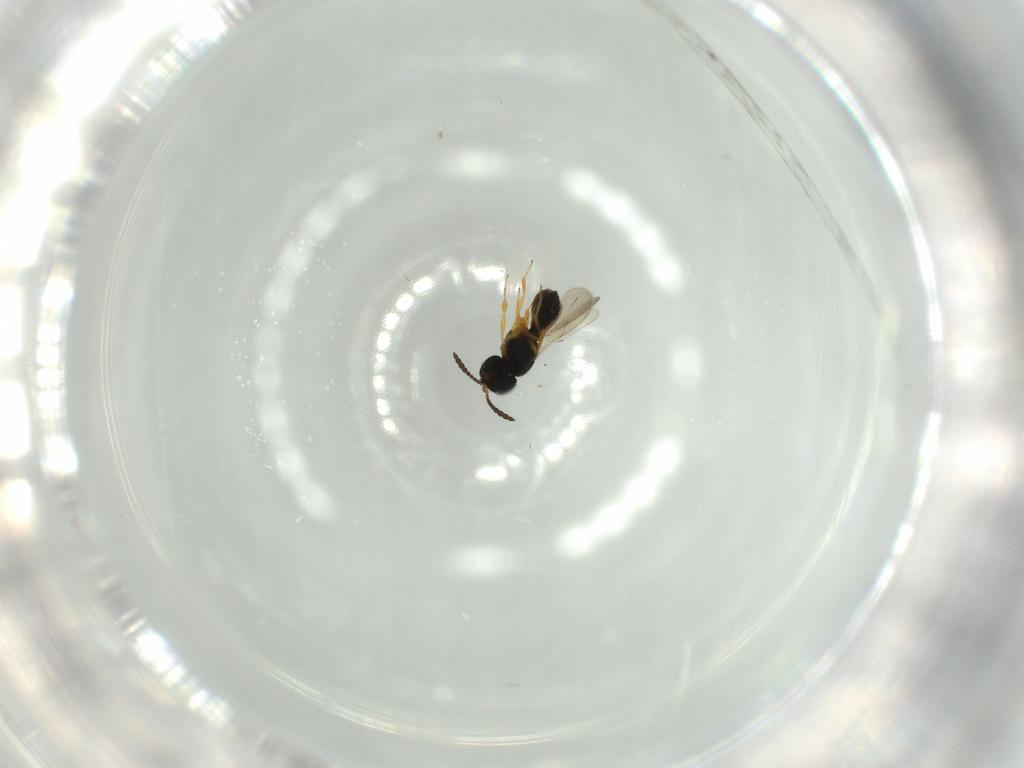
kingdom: Animalia
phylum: Arthropoda
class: Insecta
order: Hymenoptera
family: Scelionidae
